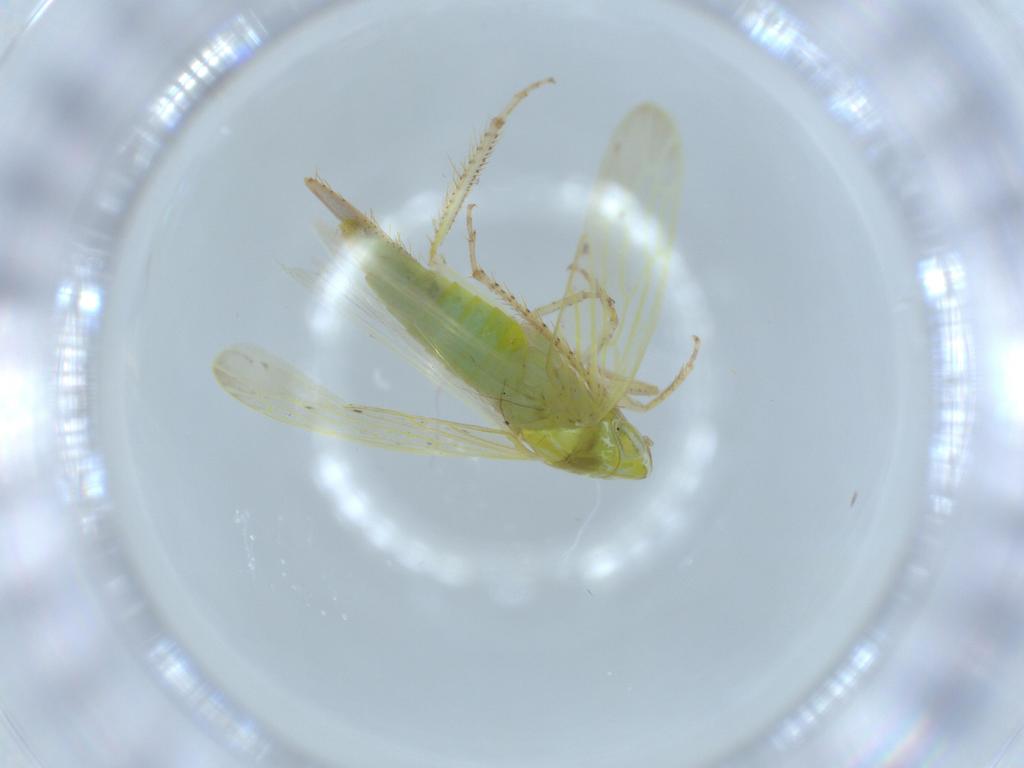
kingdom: Animalia
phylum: Arthropoda
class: Insecta
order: Hemiptera
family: Cicadellidae
